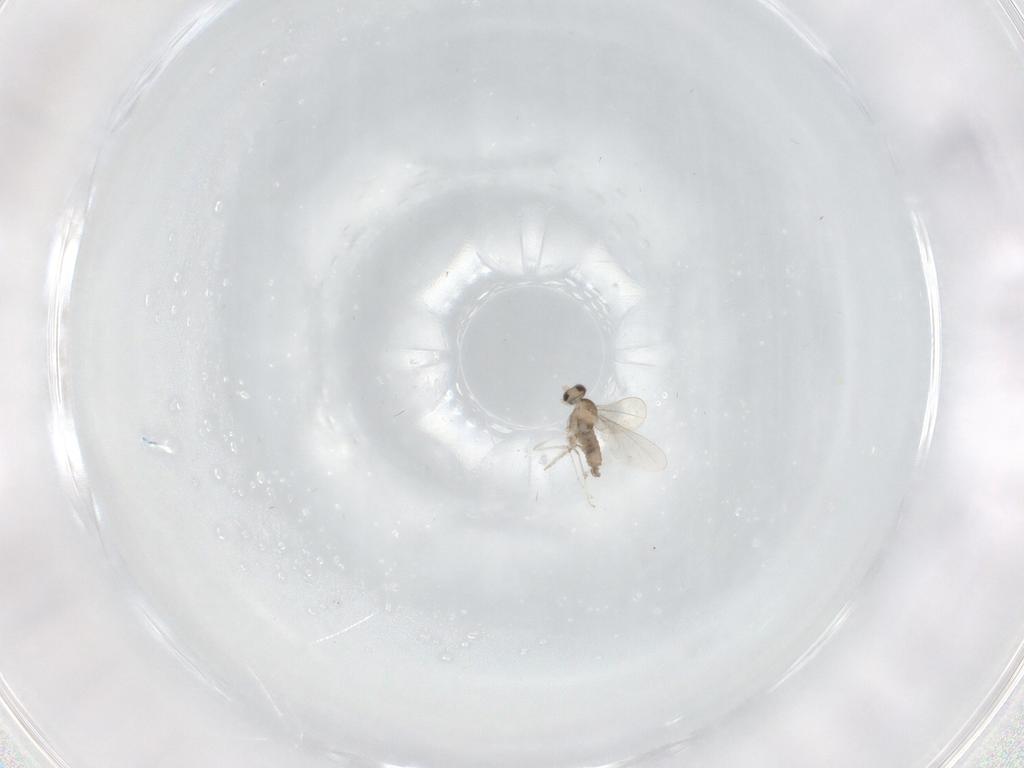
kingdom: Animalia
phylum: Arthropoda
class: Insecta
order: Diptera
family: Cecidomyiidae
